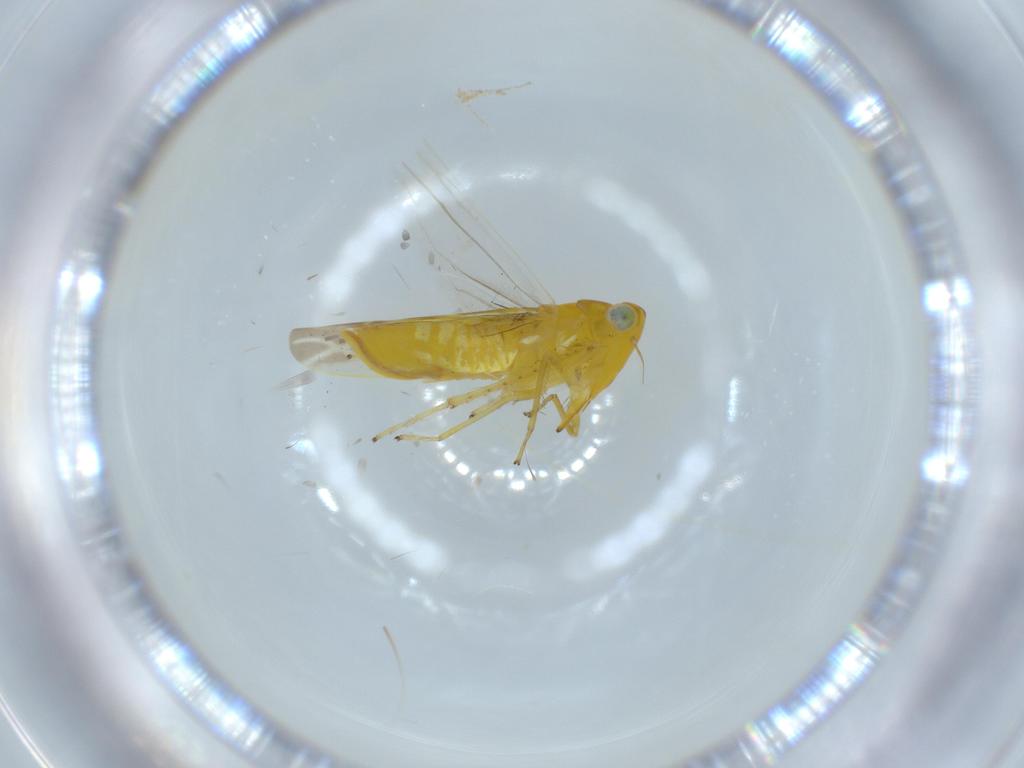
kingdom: Animalia
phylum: Arthropoda
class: Insecta
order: Hemiptera
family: Cicadellidae
